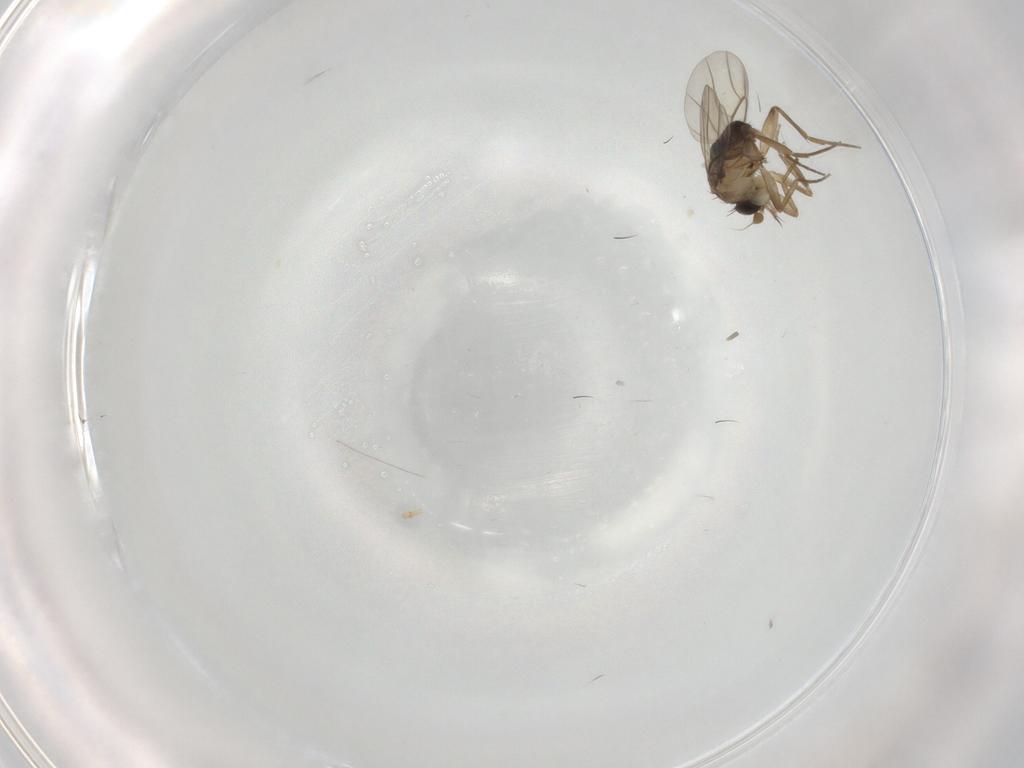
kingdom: Animalia
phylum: Arthropoda
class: Insecta
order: Diptera
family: Phoridae
